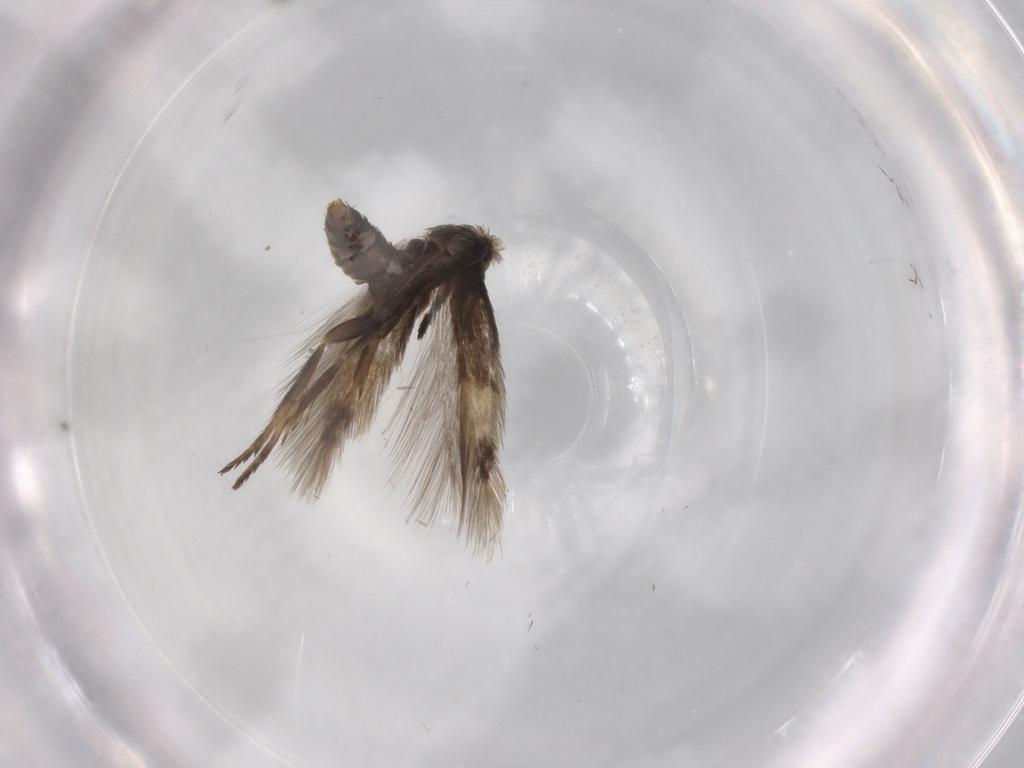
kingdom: Animalia
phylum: Arthropoda
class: Insecta
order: Lepidoptera
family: Nepticulidae
